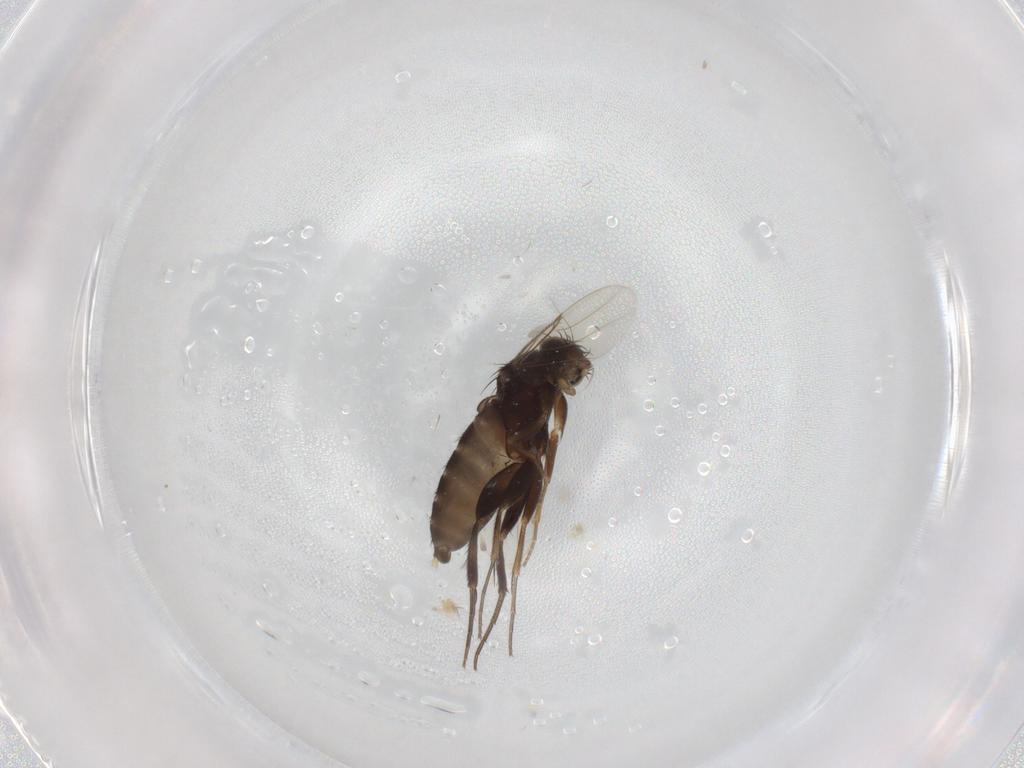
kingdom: Animalia
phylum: Arthropoda
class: Insecta
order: Diptera
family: Phoridae
